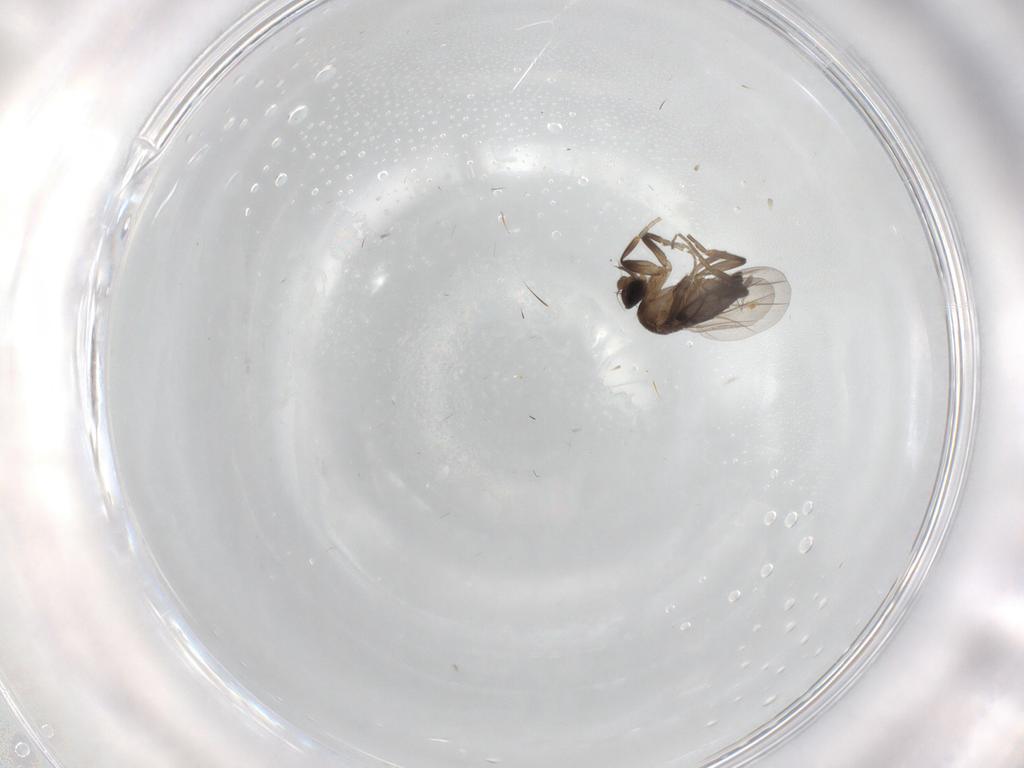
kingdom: Animalia
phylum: Arthropoda
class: Insecta
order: Diptera
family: Phoridae
